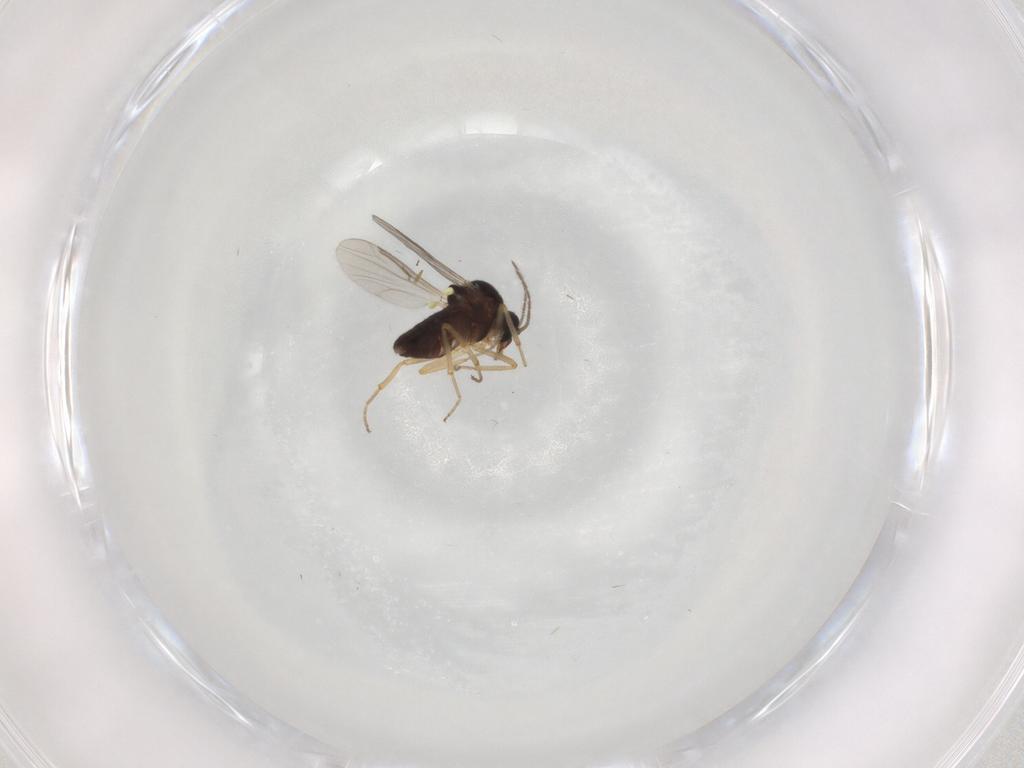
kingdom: Animalia
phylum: Arthropoda
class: Insecta
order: Diptera
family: Ceratopogonidae
